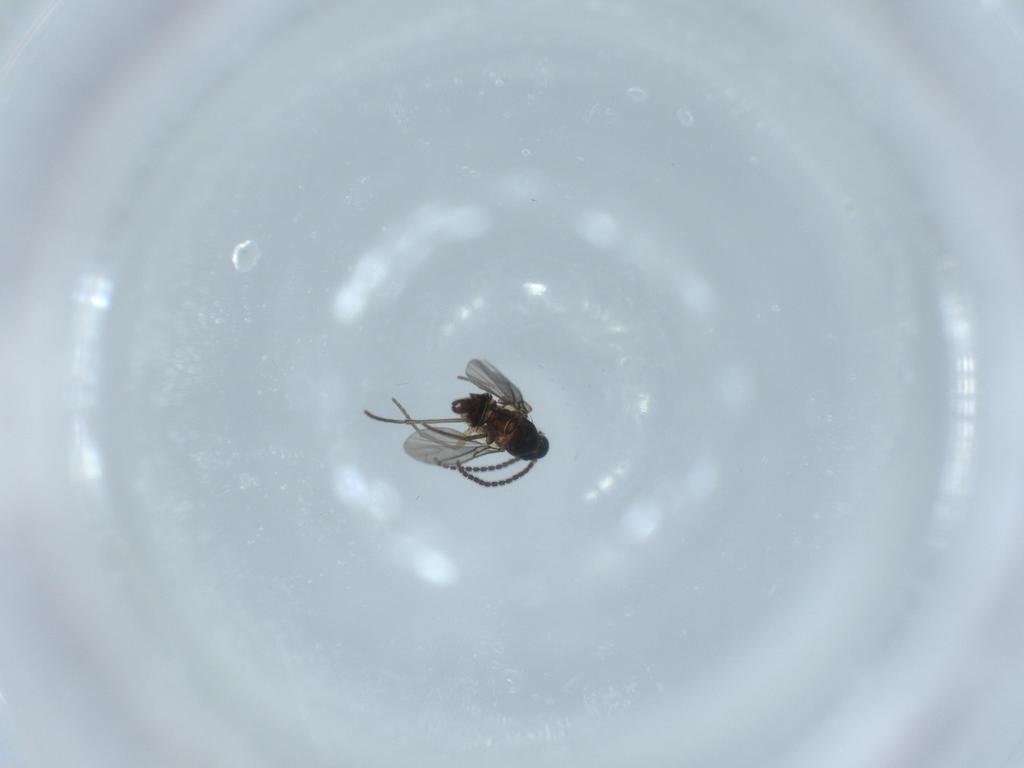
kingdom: Animalia
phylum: Arthropoda
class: Insecta
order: Diptera
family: Sciaridae
